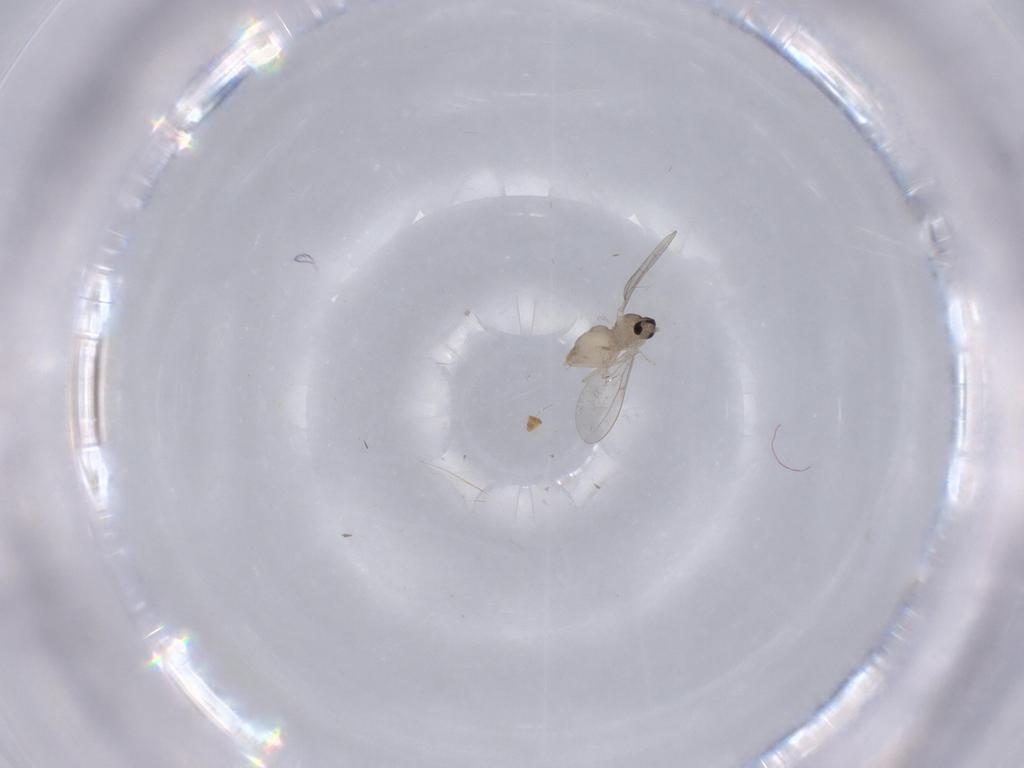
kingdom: Animalia
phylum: Arthropoda
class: Insecta
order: Diptera
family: Cecidomyiidae
